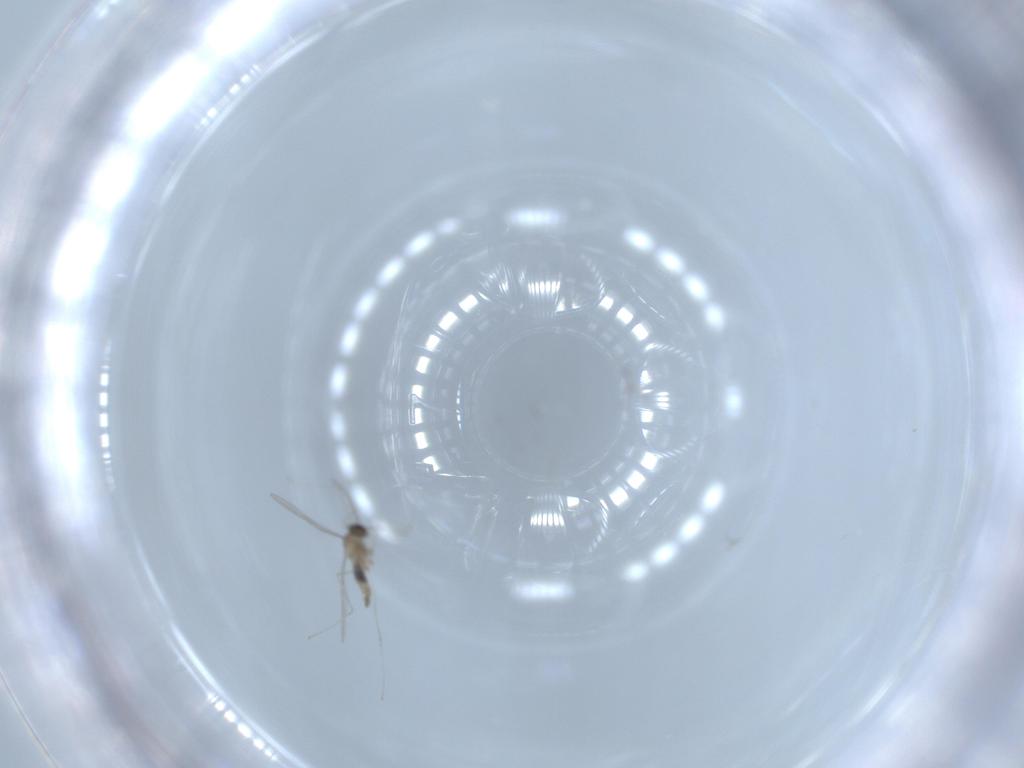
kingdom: Animalia
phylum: Arthropoda
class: Insecta
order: Diptera
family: Cecidomyiidae
